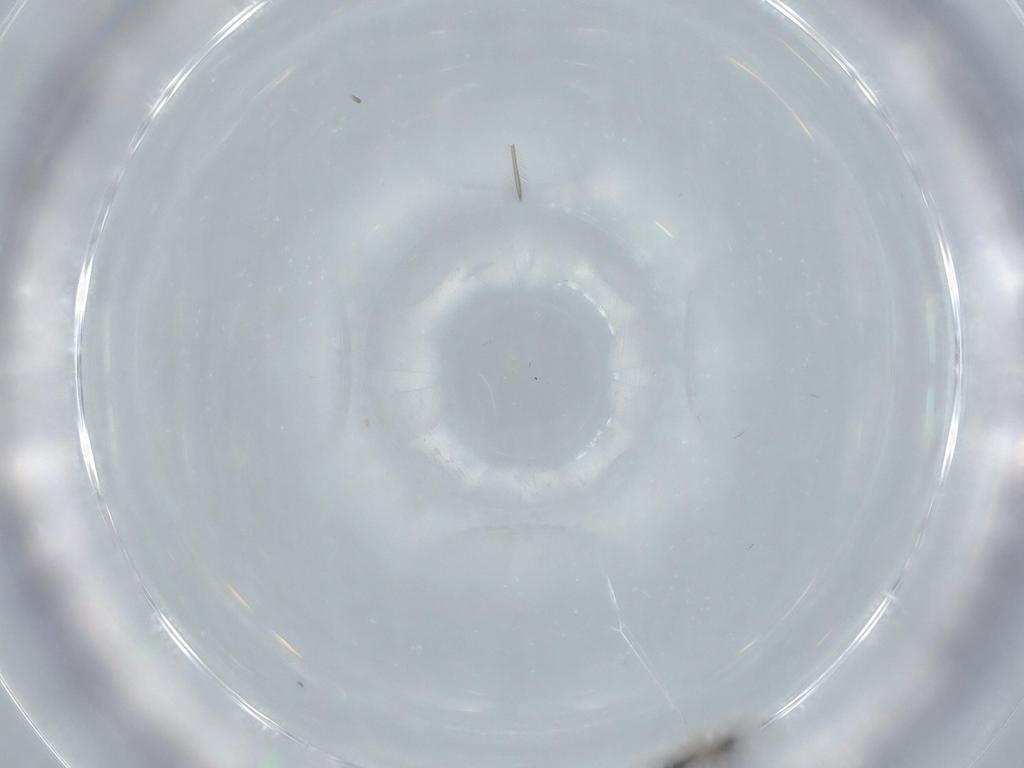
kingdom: Animalia
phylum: Arthropoda
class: Insecta
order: Hymenoptera
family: Mymaridae
